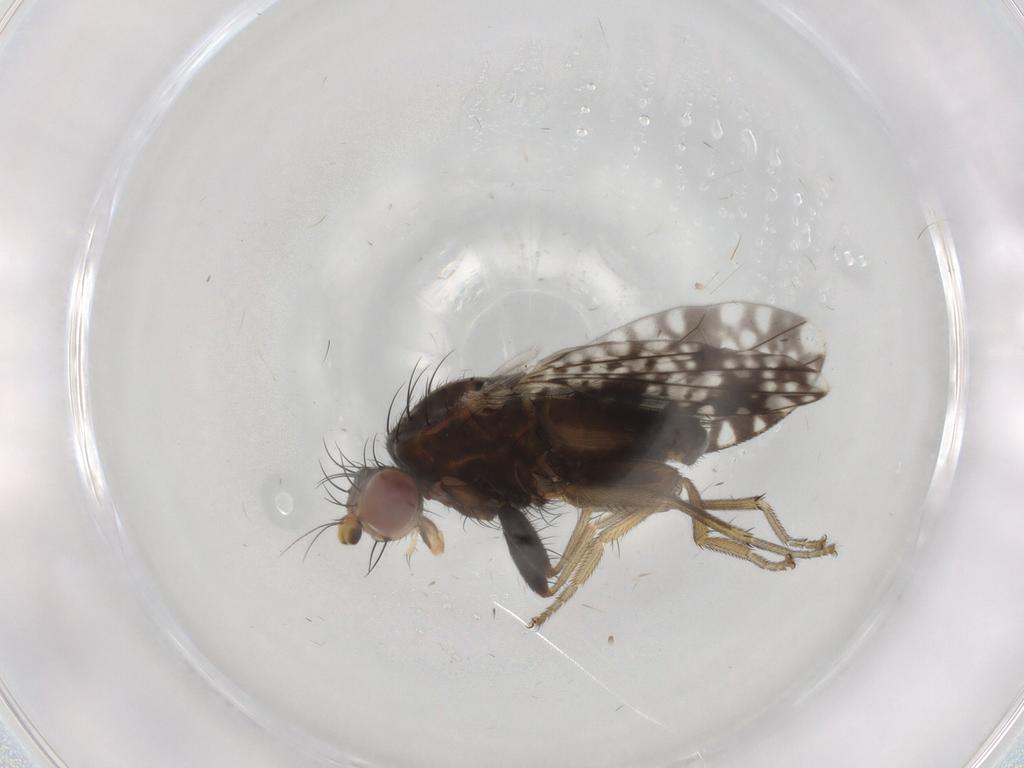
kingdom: Animalia
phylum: Arthropoda
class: Insecta
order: Diptera
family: Tephritidae
